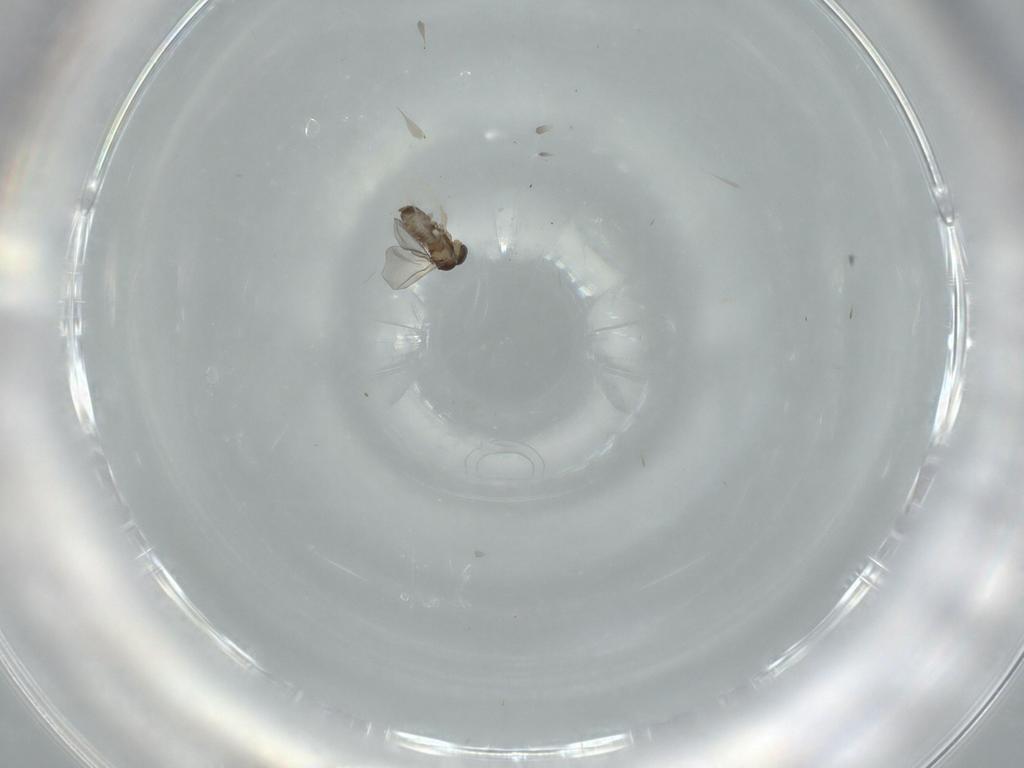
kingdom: Animalia
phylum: Arthropoda
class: Insecta
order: Diptera
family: Cecidomyiidae
